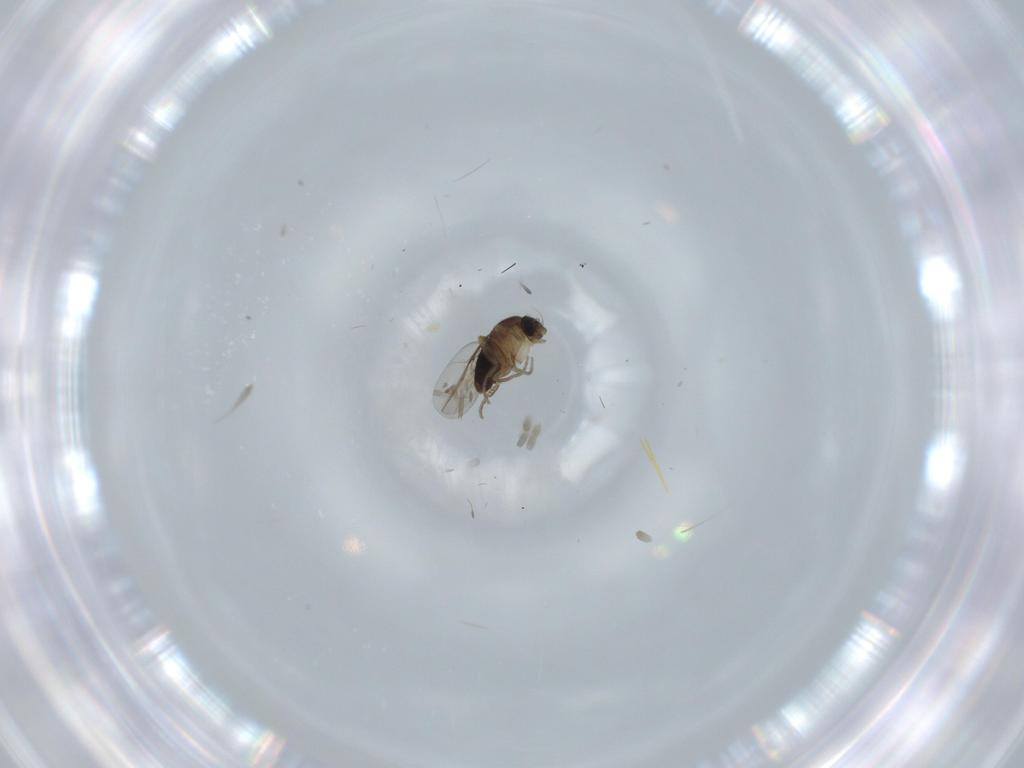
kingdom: Animalia
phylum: Arthropoda
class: Insecta
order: Diptera
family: Phoridae
